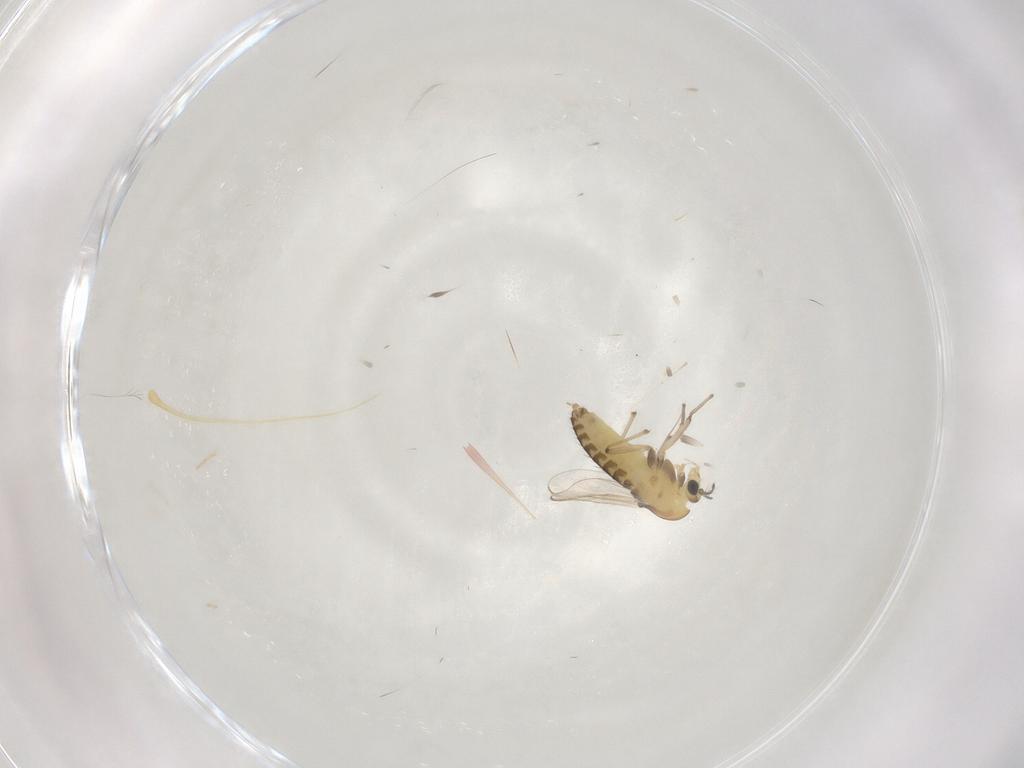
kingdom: Animalia
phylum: Arthropoda
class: Insecta
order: Diptera
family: Chironomidae
